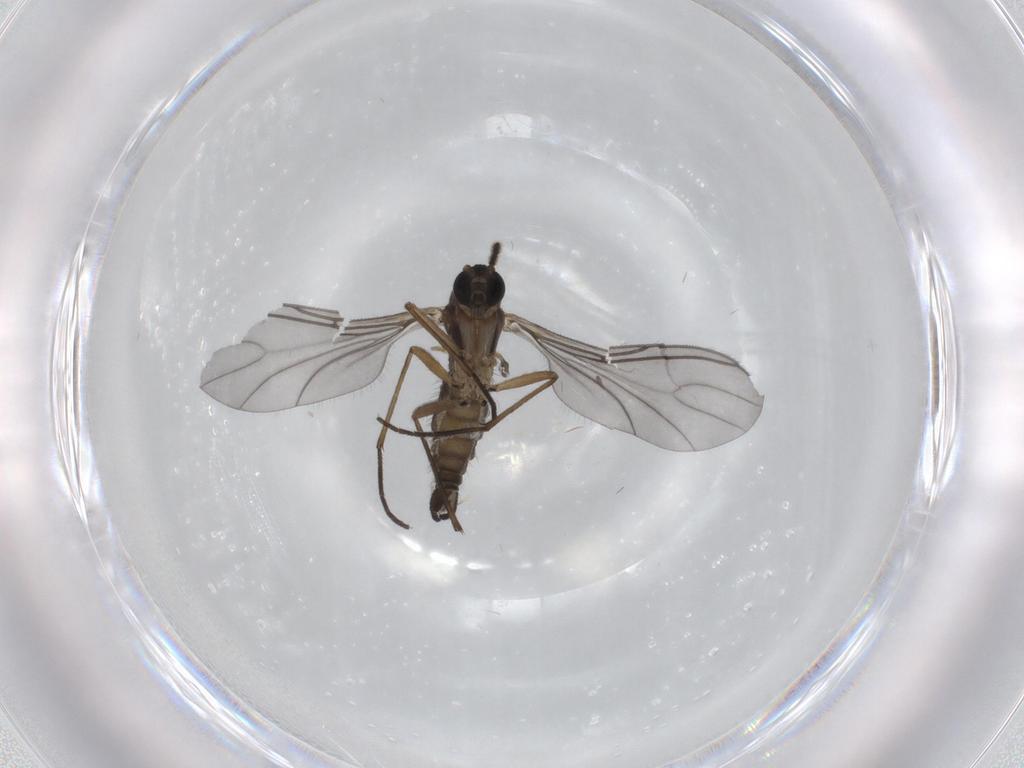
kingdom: Animalia
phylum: Arthropoda
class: Insecta
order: Diptera
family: Sciaridae
